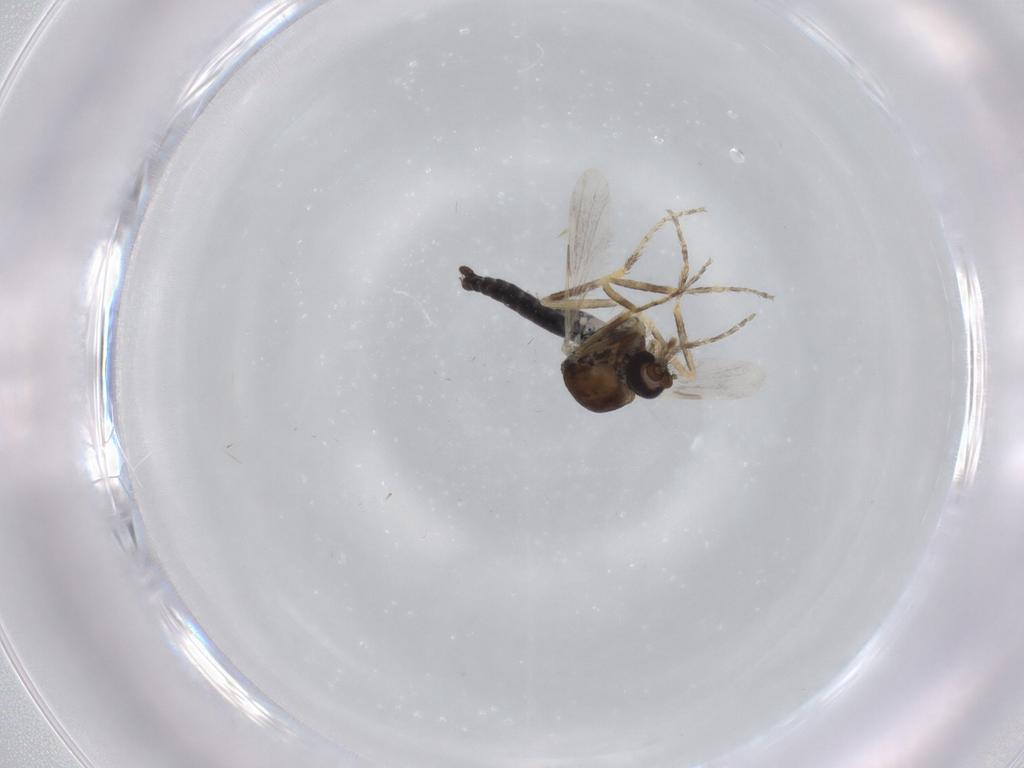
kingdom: Animalia
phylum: Arthropoda
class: Insecta
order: Diptera
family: Ceratopogonidae
